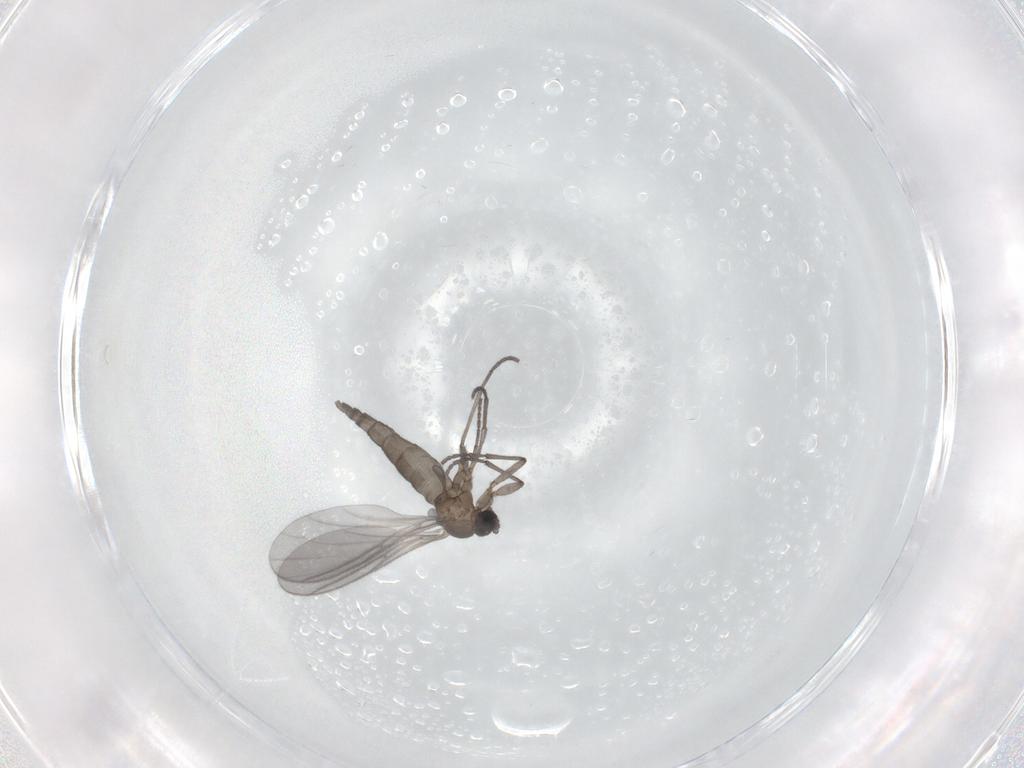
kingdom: Animalia
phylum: Arthropoda
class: Insecta
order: Diptera
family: Sciaridae
